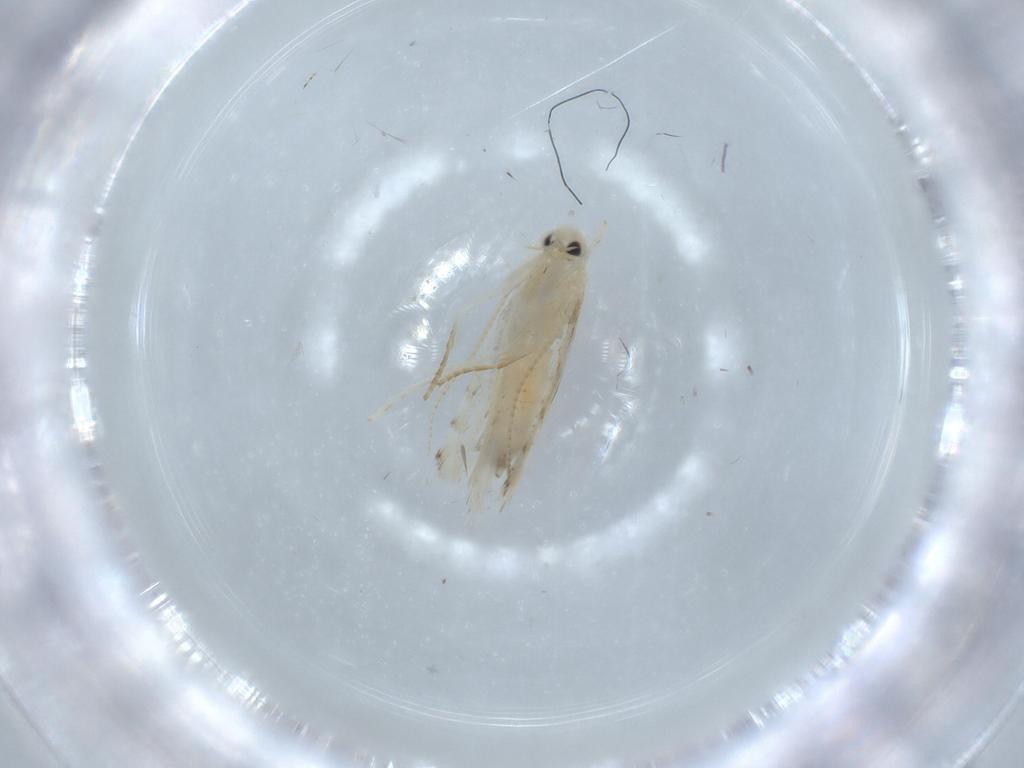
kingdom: Animalia
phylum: Arthropoda
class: Insecta
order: Lepidoptera
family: Gracillariidae
